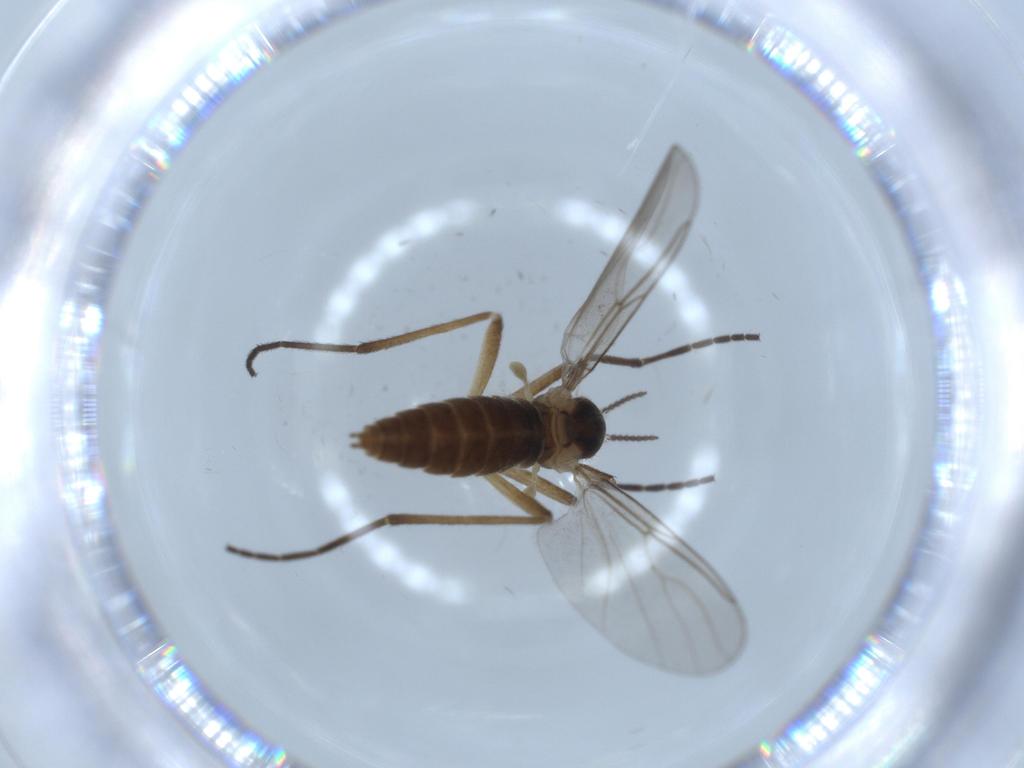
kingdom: Animalia
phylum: Arthropoda
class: Insecta
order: Diptera
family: Cecidomyiidae
